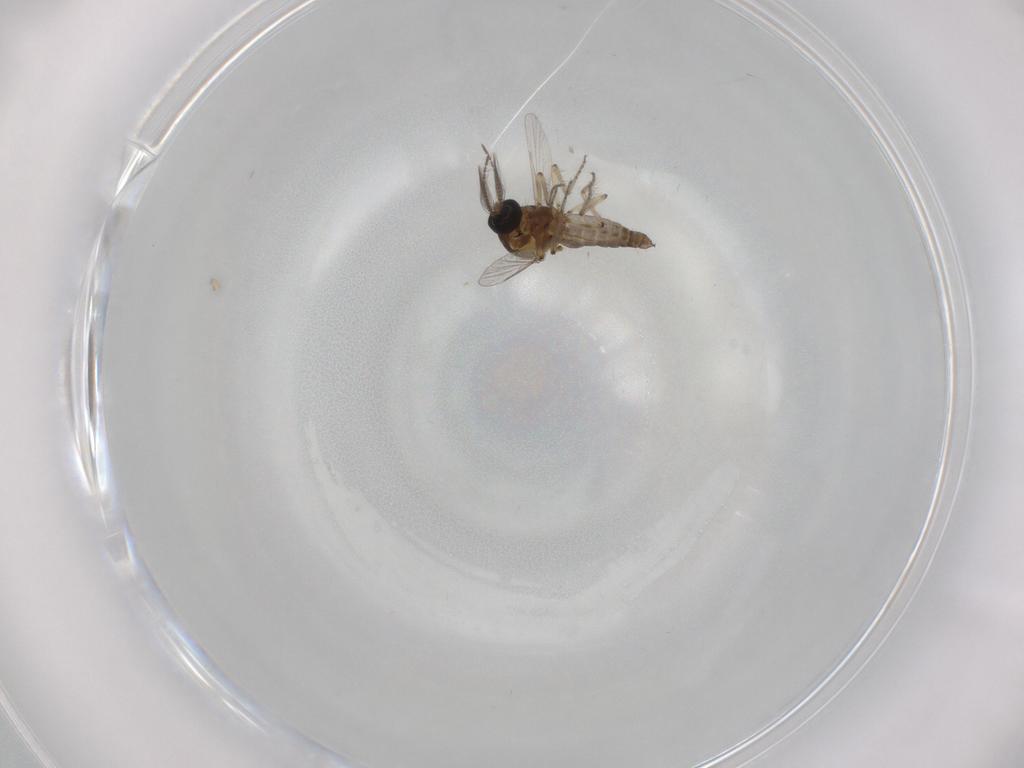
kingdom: Animalia
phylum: Arthropoda
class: Insecta
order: Diptera
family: Ceratopogonidae
